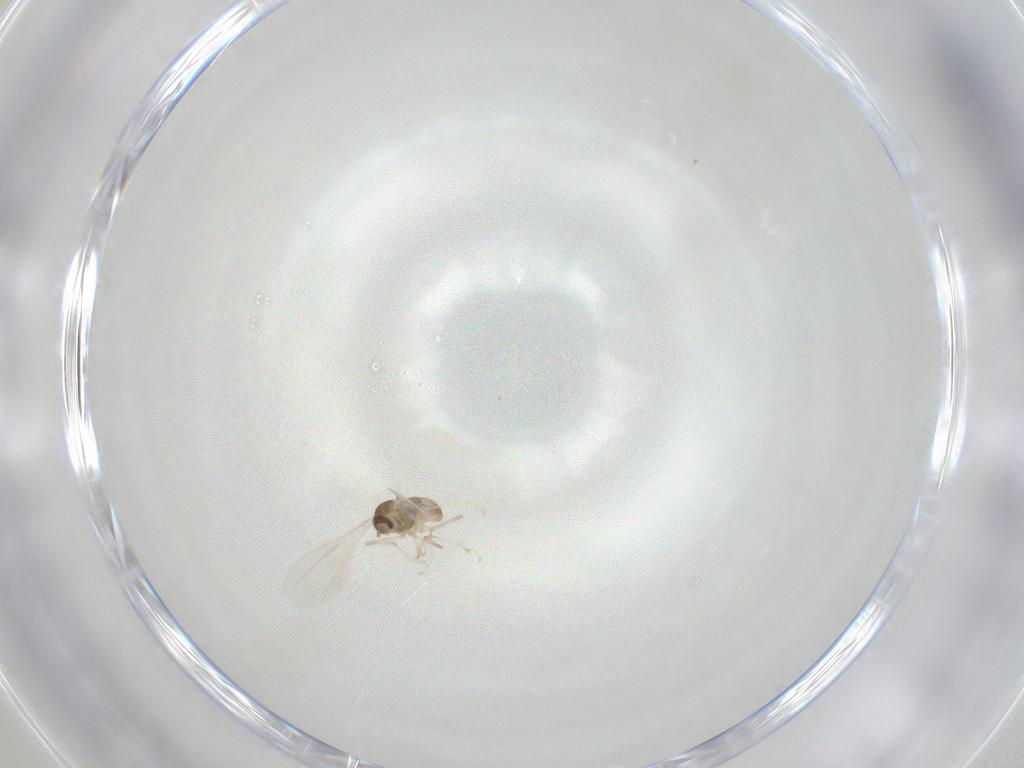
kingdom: Animalia
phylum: Arthropoda
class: Insecta
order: Diptera
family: Pipunculidae
